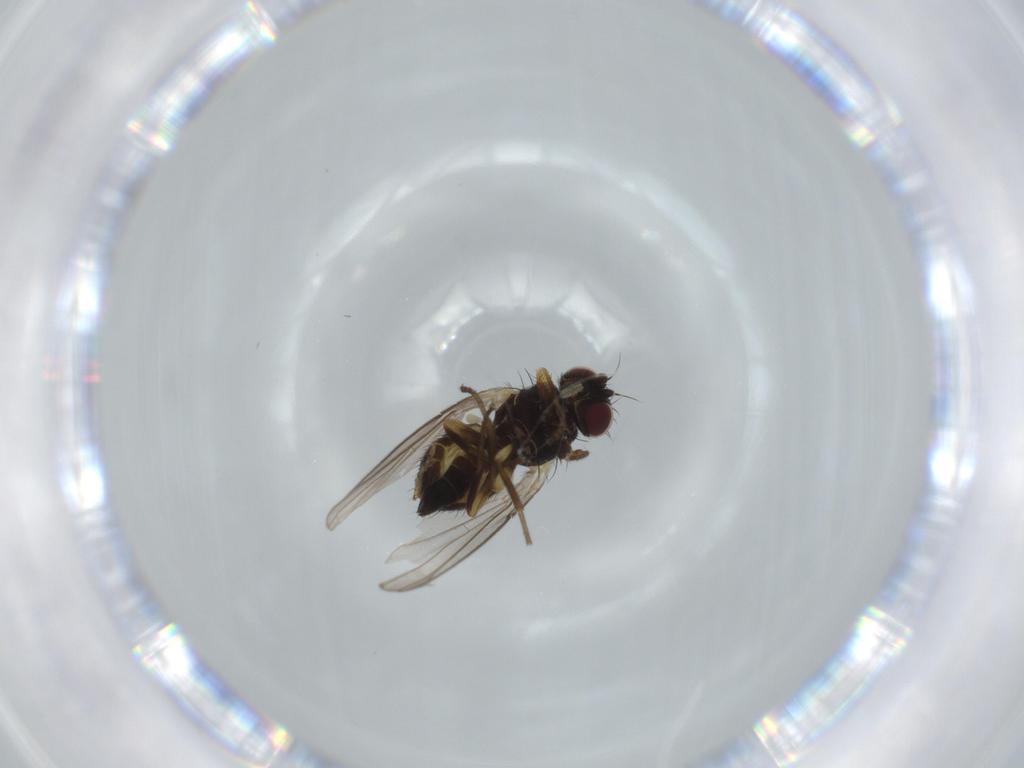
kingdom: Animalia
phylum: Arthropoda
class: Insecta
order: Diptera
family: Agromyzidae
